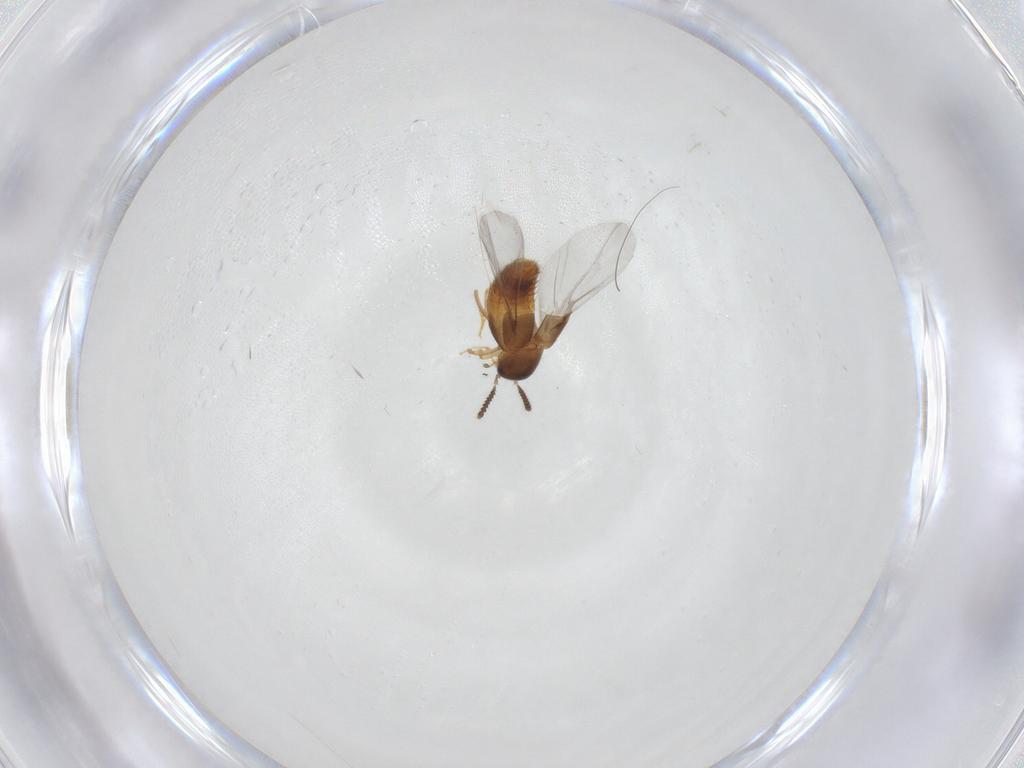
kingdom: Animalia
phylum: Arthropoda
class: Insecta
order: Coleoptera
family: Staphylinidae
